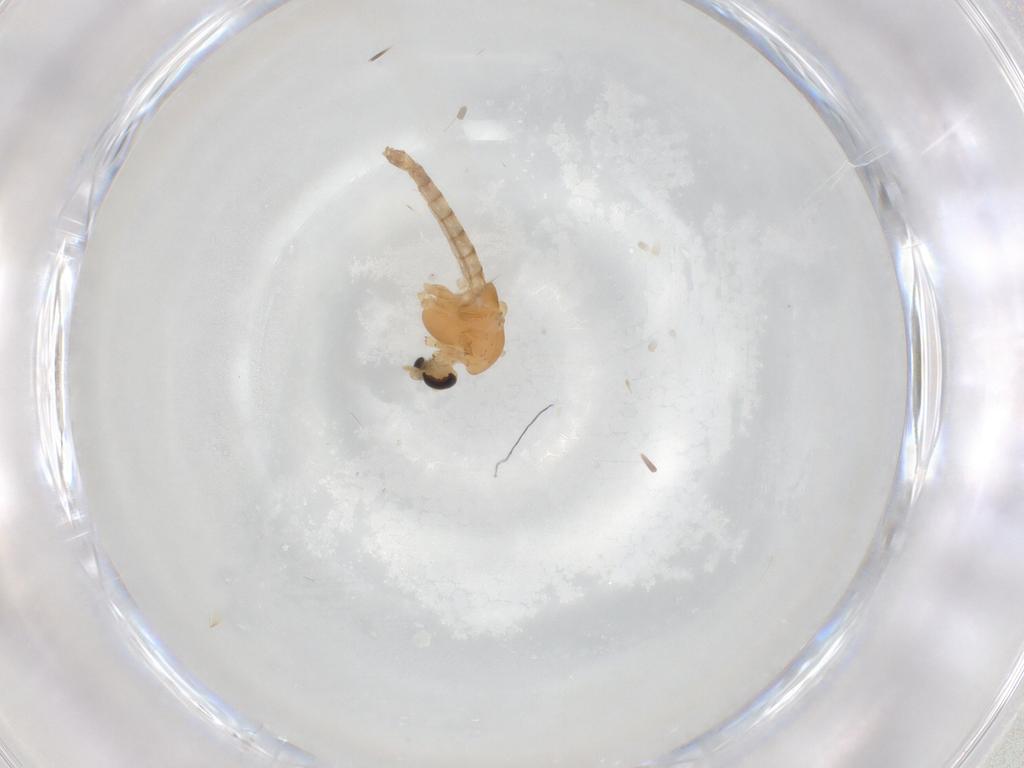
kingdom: Animalia
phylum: Arthropoda
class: Insecta
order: Diptera
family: Chironomidae
